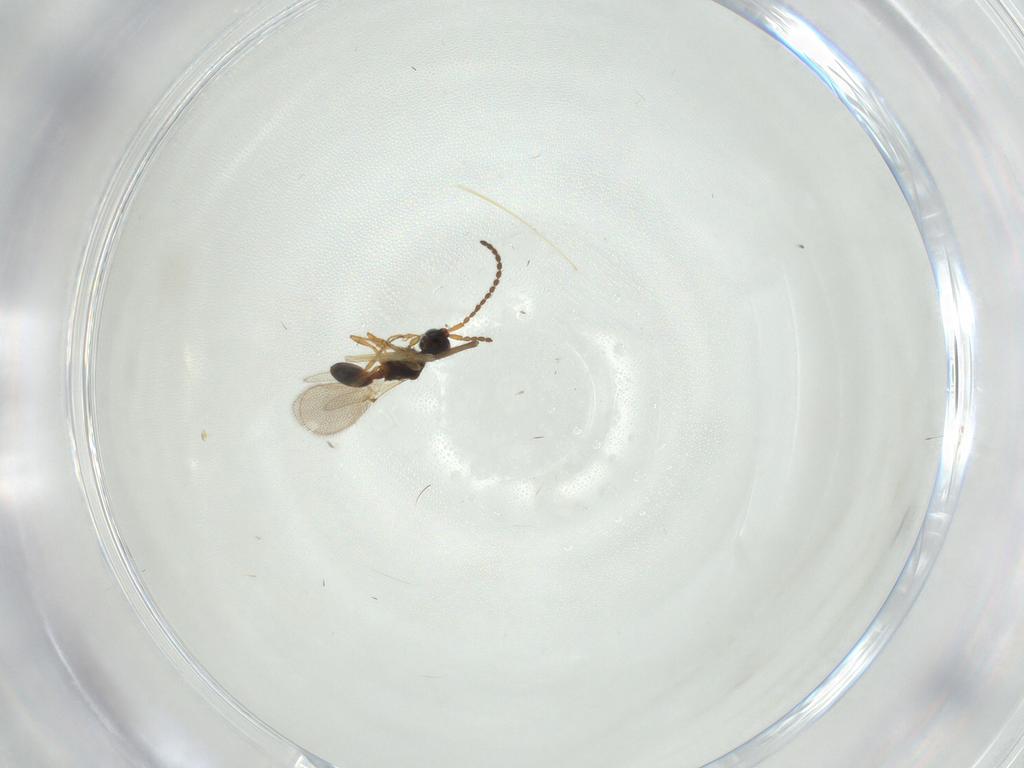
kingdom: Animalia
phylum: Arthropoda
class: Insecta
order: Hymenoptera
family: Diapriidae
